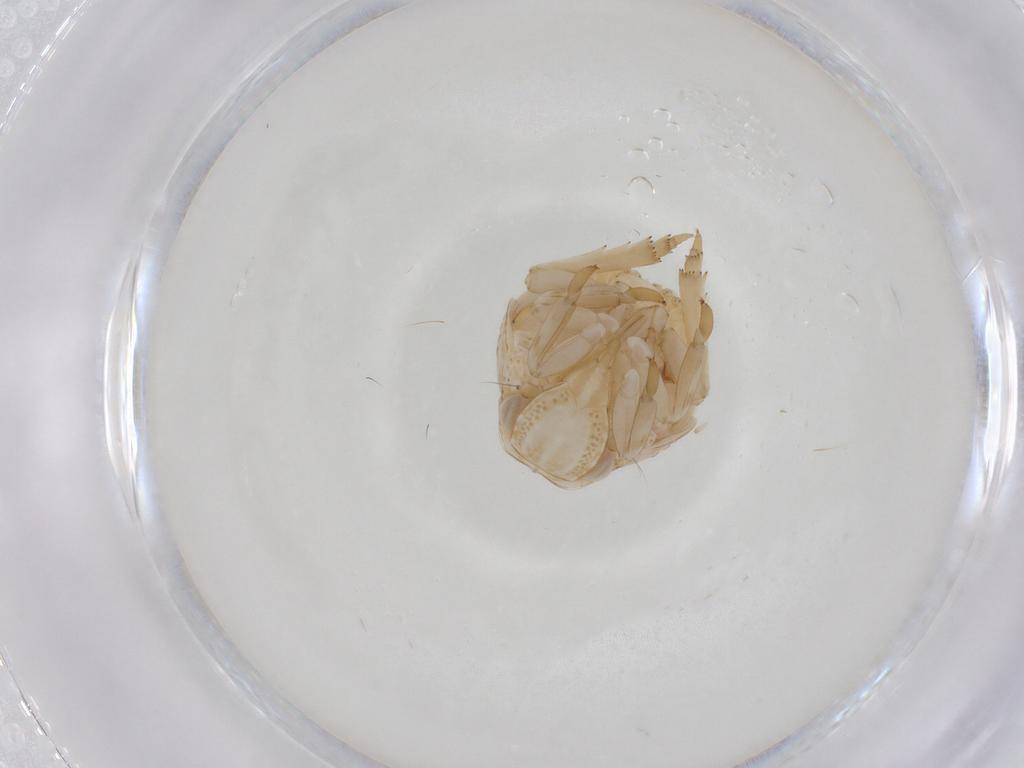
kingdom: Animalia
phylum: Arthropoda
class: Insecta
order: Hemiptera
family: Acanaloniidae
